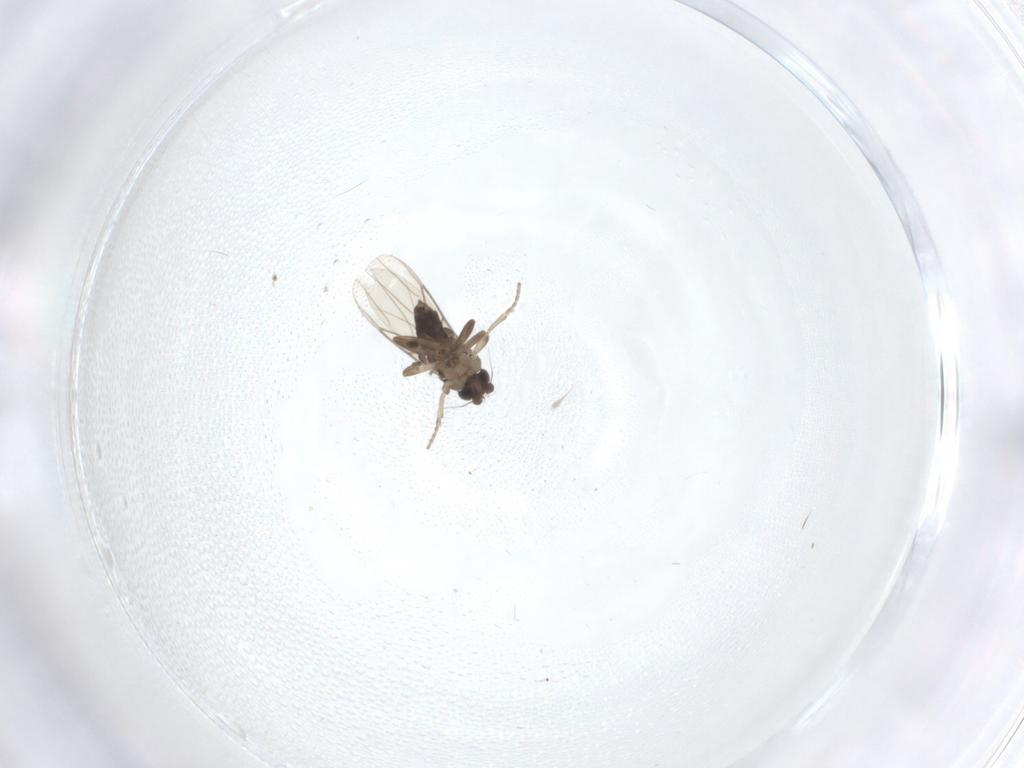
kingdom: Animalia
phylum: Arthropoda
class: Insecta
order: Diptera
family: Phoridae
